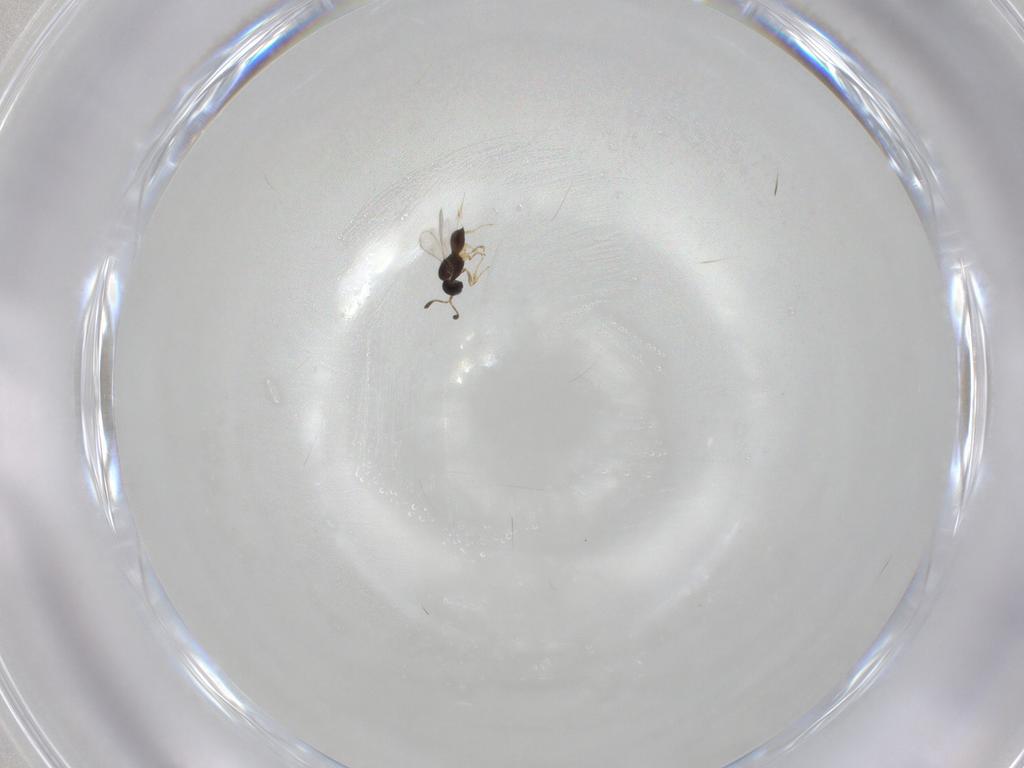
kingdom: Animalia
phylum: Arthropoda
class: Insecta
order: Hymenoptera
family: Scelionidae
